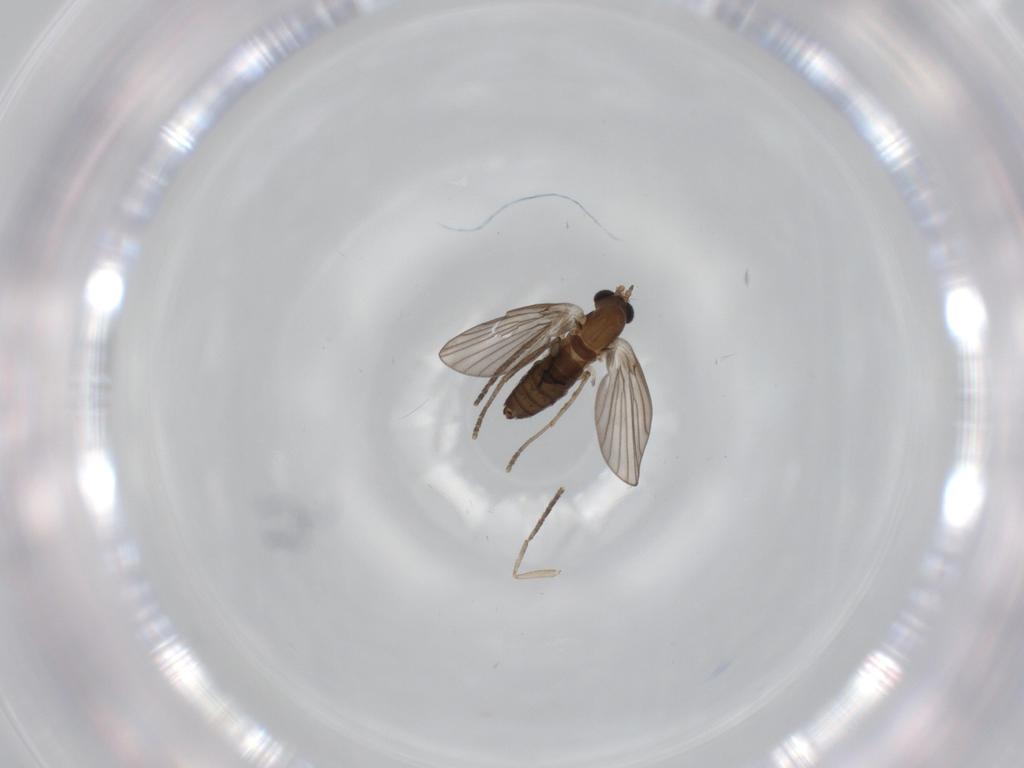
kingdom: Animalia
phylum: Arthropoda
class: Insecta
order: Diptera
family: Psychodidae
